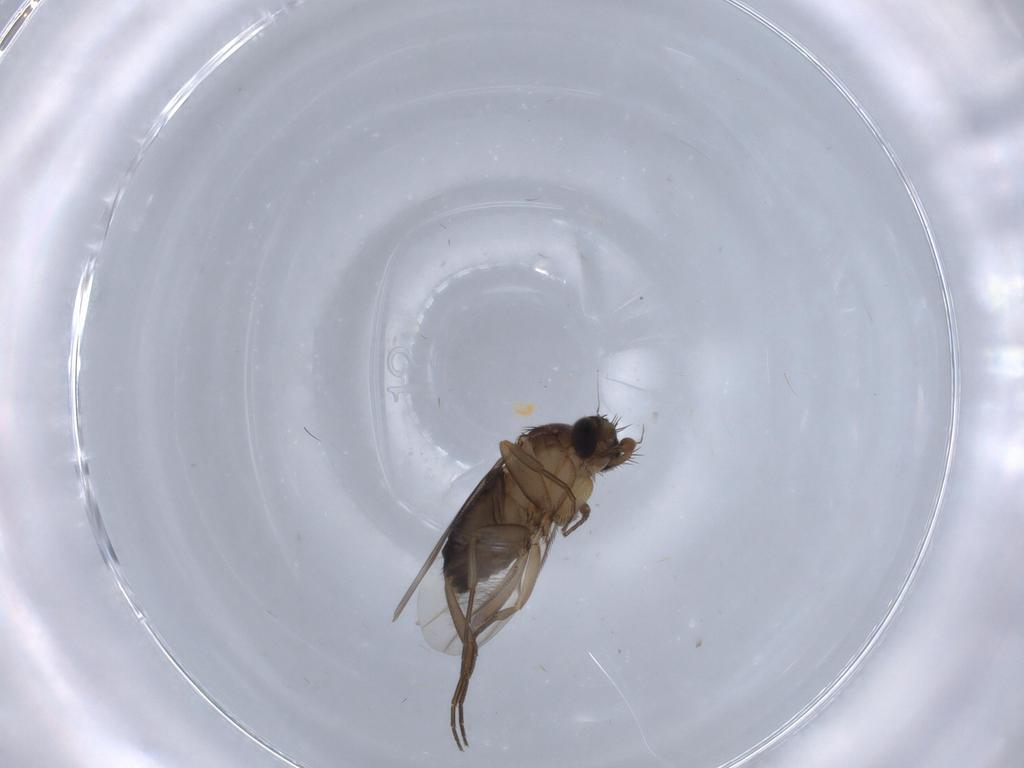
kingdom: Animalia
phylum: Arthropoda
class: Insecta
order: Diptera
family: Phoridae
